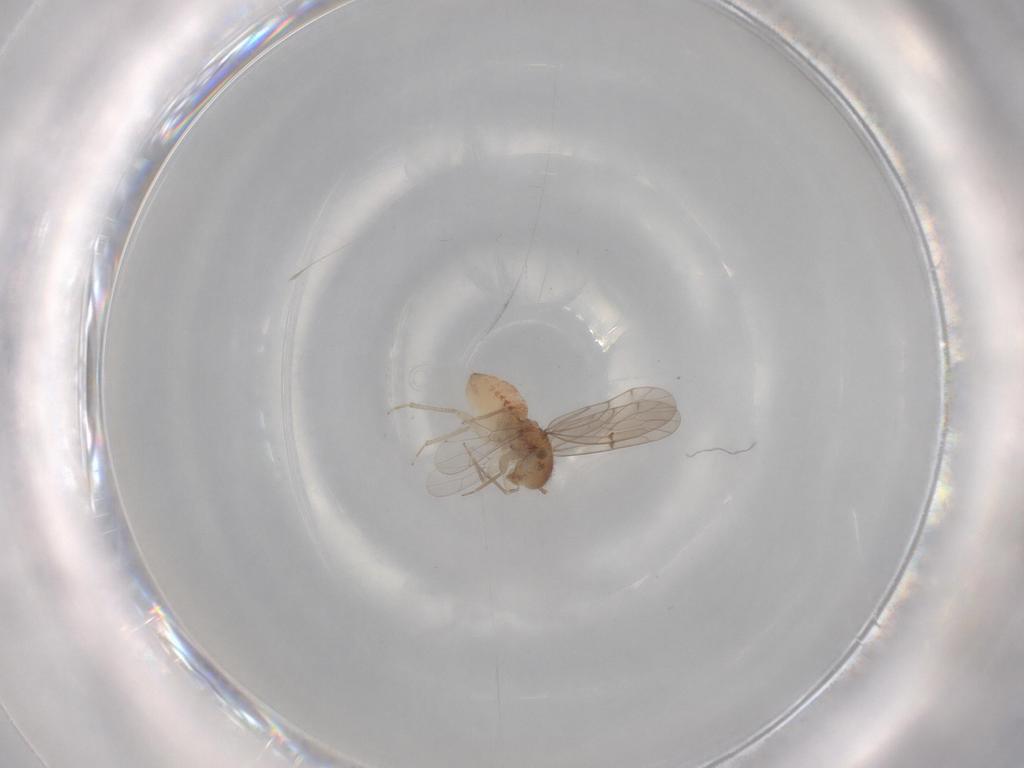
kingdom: Animalia
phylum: Arthropoda
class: Insecta
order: Psocodea
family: Ectopsocidae
